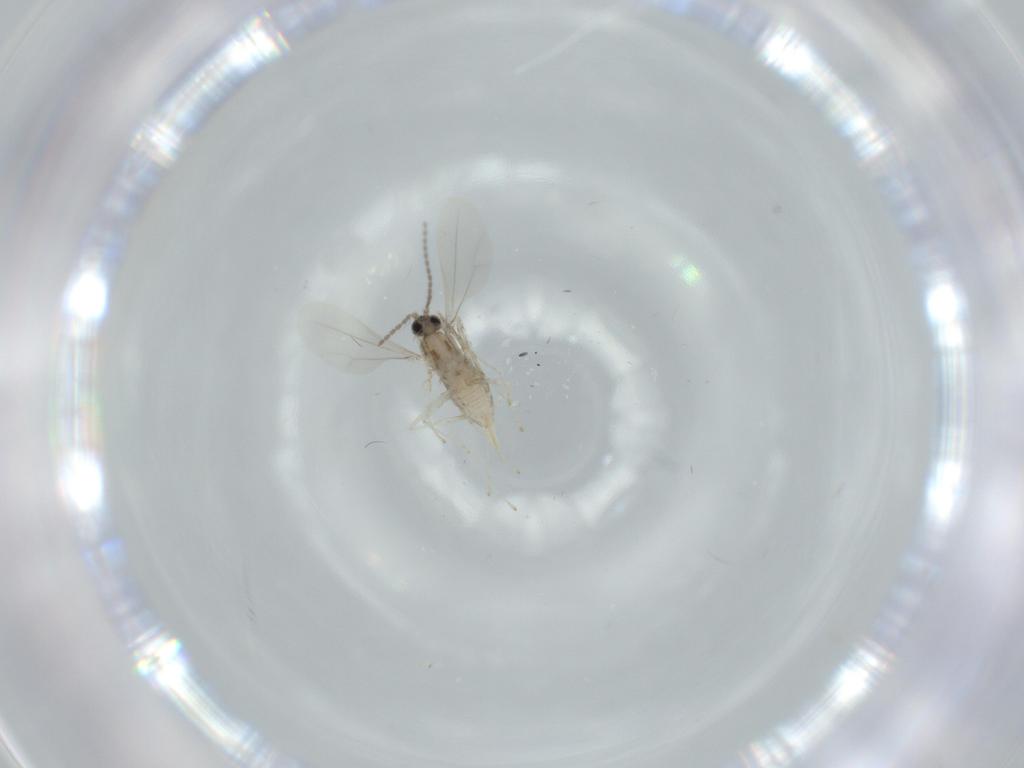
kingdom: Animalia
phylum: Arthropoda
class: Insecta
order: Diptera
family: Cecidomyiidae
